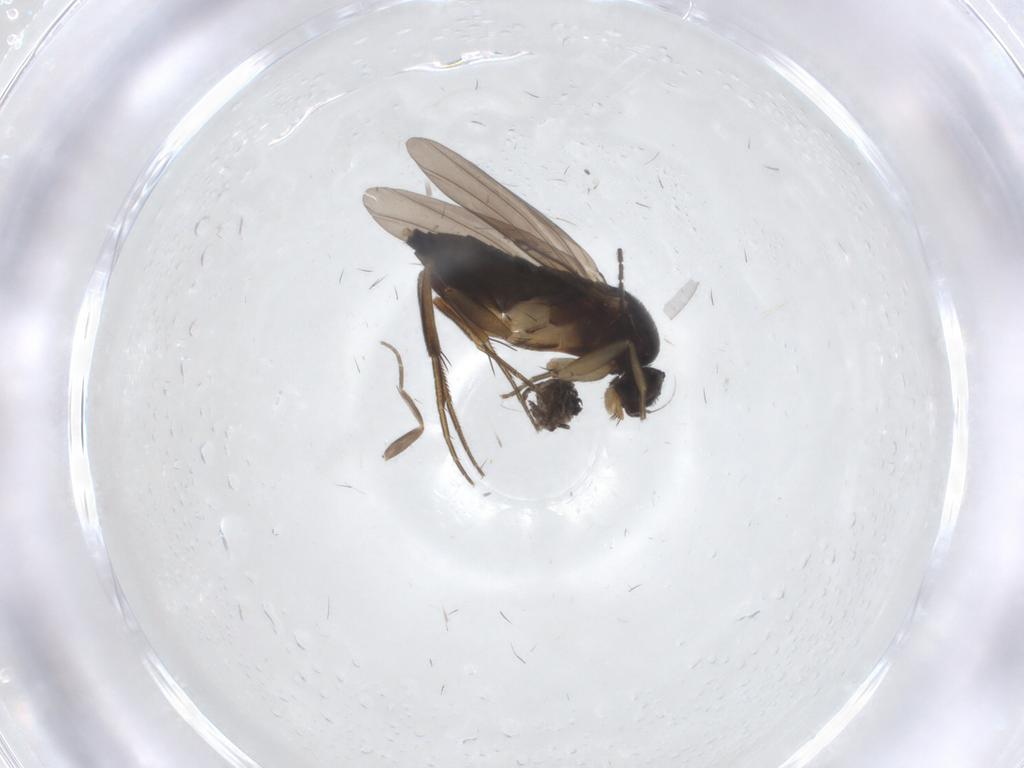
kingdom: Animalia
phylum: Arthropoda
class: Insecta
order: Diptera
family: Phoridae
